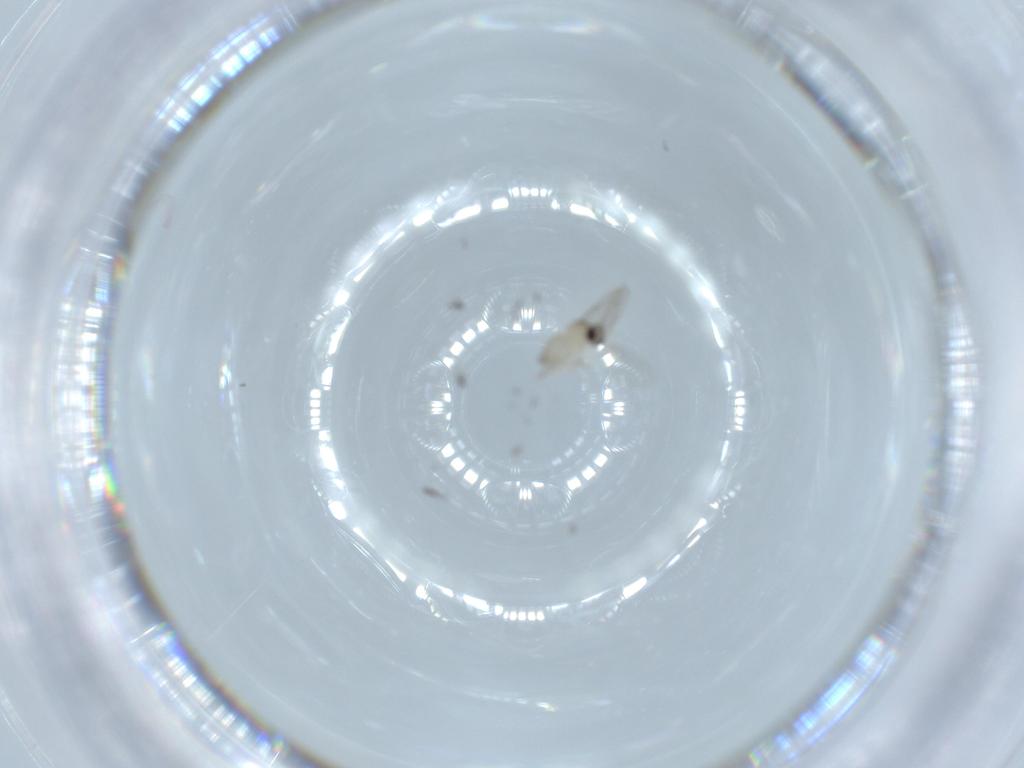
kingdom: Animalia
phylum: Arthropoda
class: Insecta
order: Diptera
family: Cecidomyiidae
